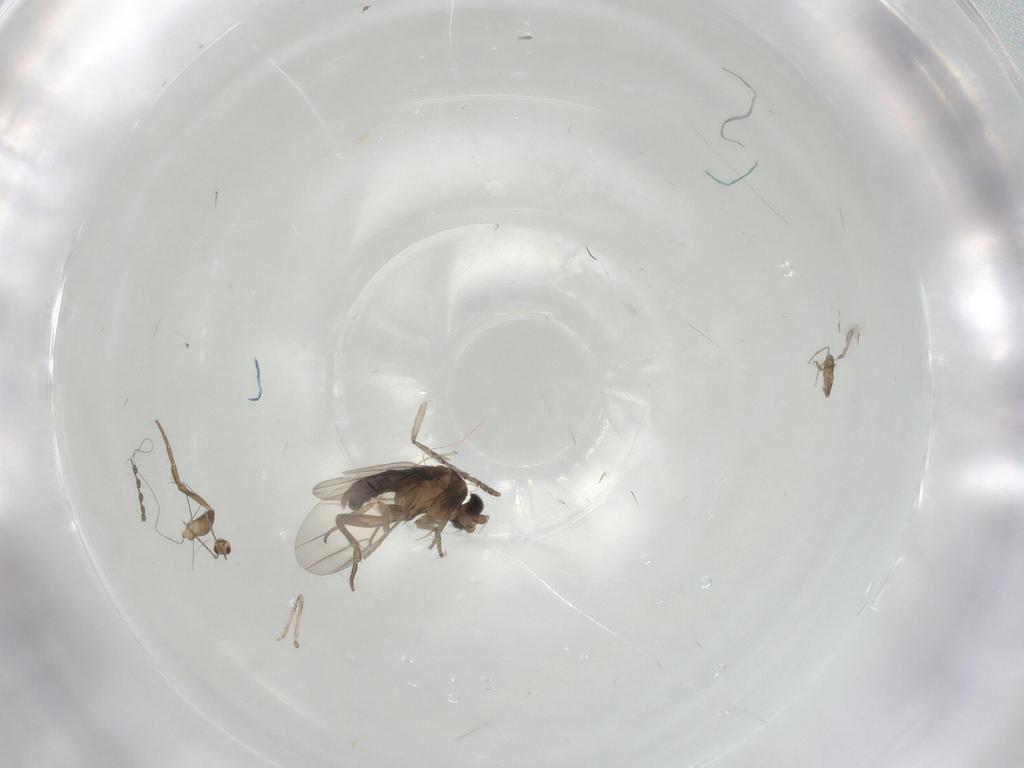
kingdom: Animalia
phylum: Arthropoda
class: Insecta
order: Diptera
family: Phoridae
